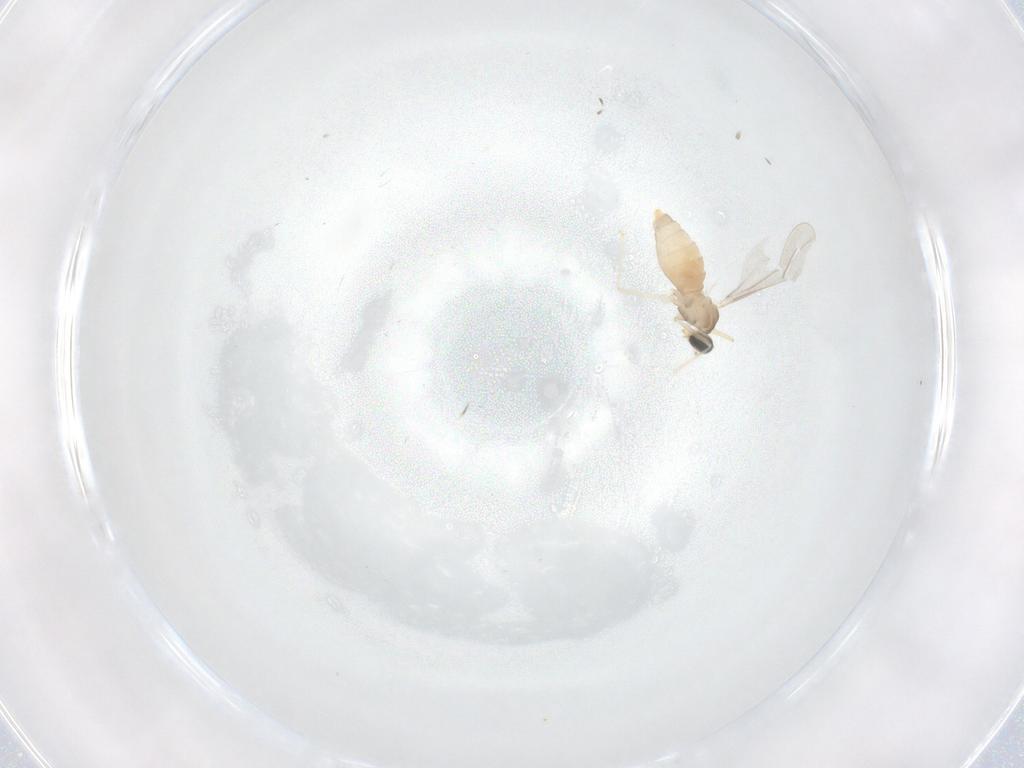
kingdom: Animalia
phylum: Arthropoda
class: Insecta
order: Diptera
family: Cecidomyiidae
